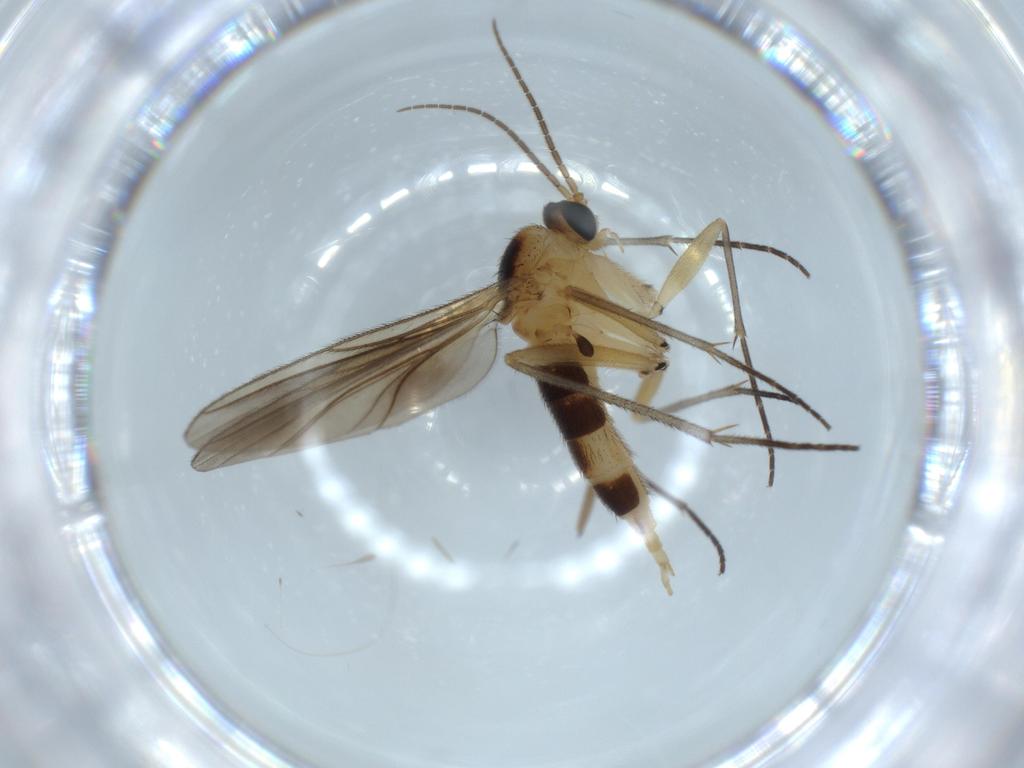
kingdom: Animalia
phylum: Arthropoda
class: Insecta
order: Diptera
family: Sciaridae
